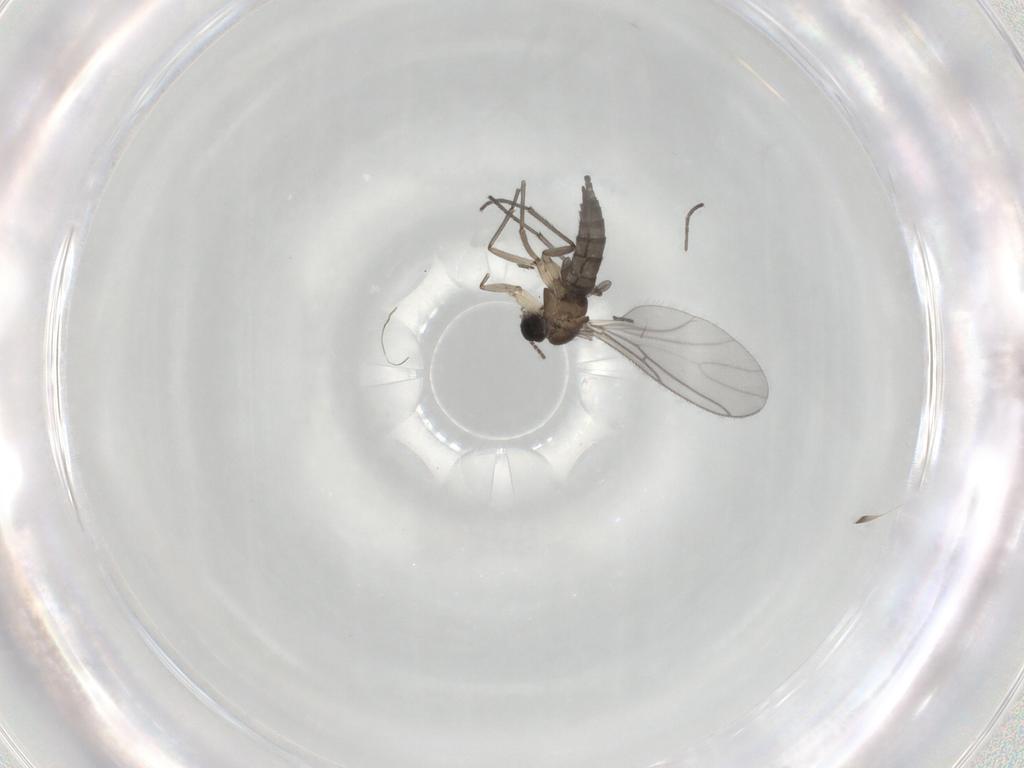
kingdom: Animalia
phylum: Arthropoda
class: Insecta
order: Diptera
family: Sciaridae
